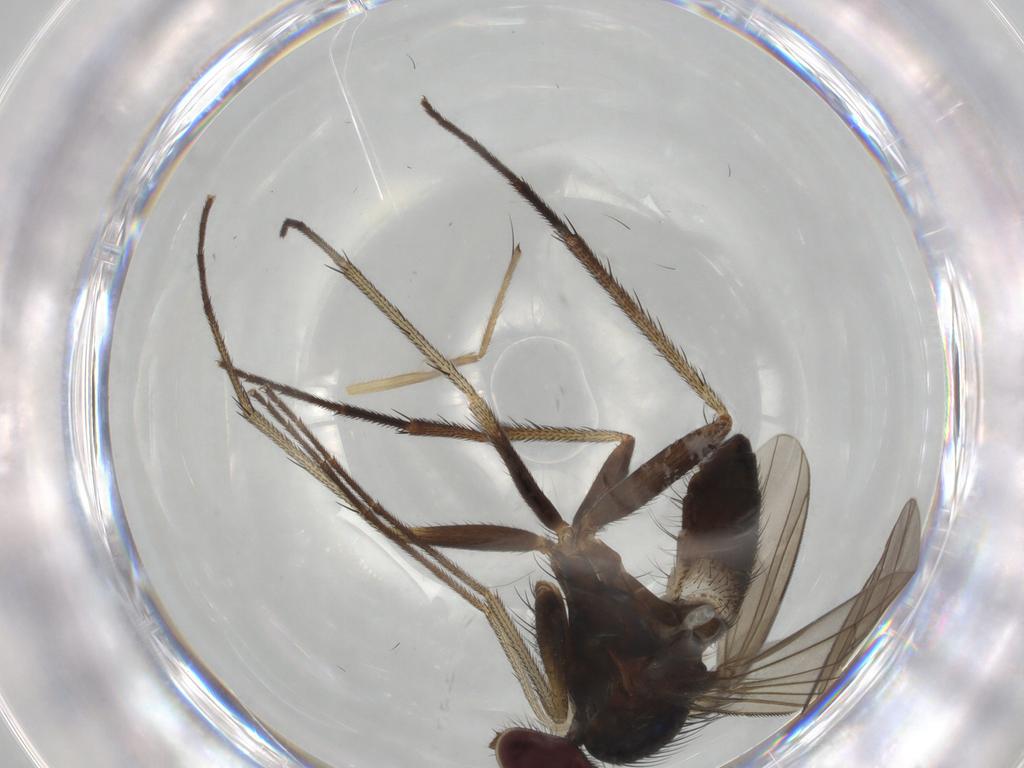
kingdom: Animalia
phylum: Arthropoda
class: Insecta
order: Diptera
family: Dolichopodidae
